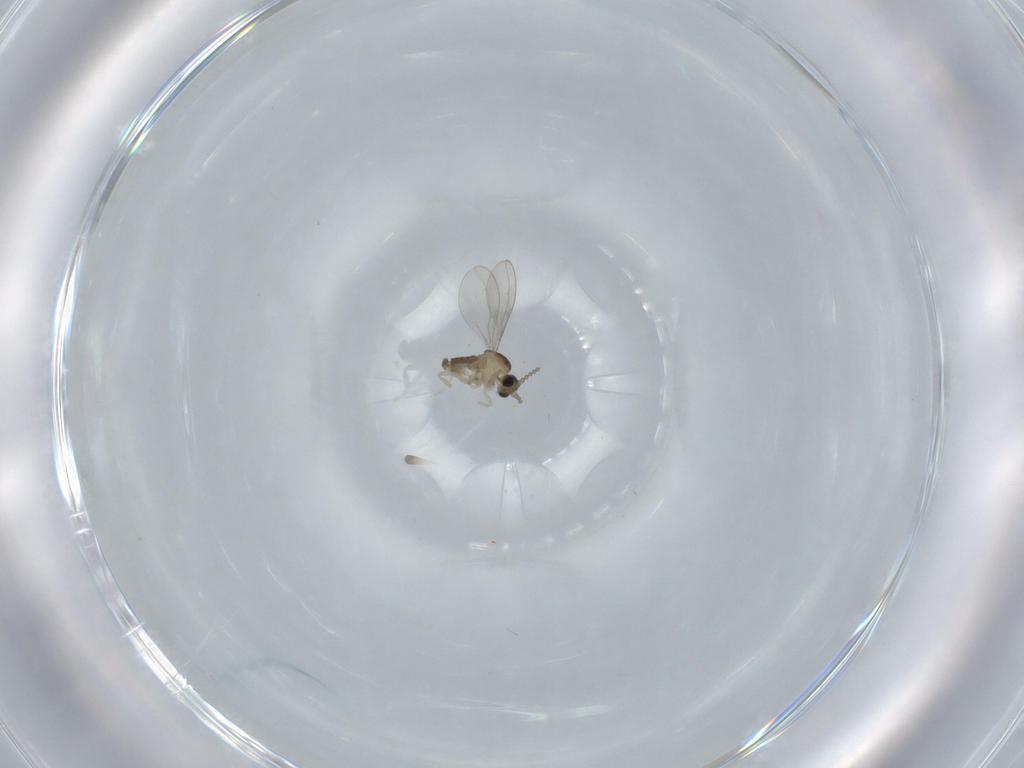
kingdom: Animalia
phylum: Arthropoda
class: Insecta
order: Diptera
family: Cecidomyiidae
